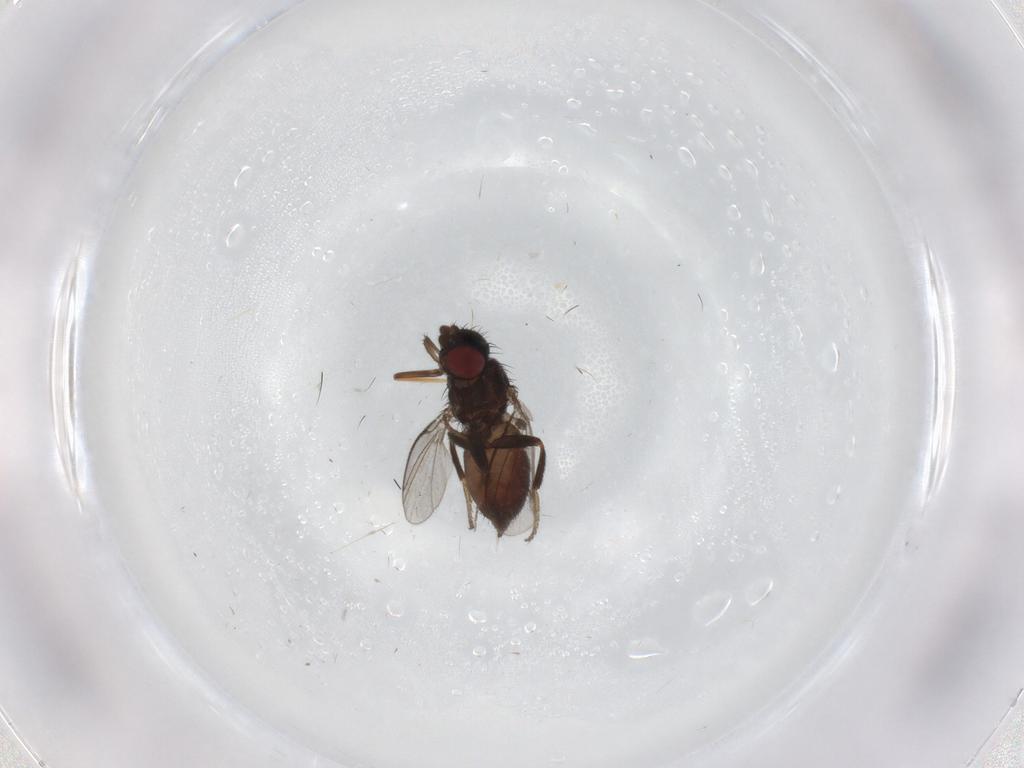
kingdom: Animalia
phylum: Arthropoda
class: Insecta
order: Diptera
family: Milichiidae
